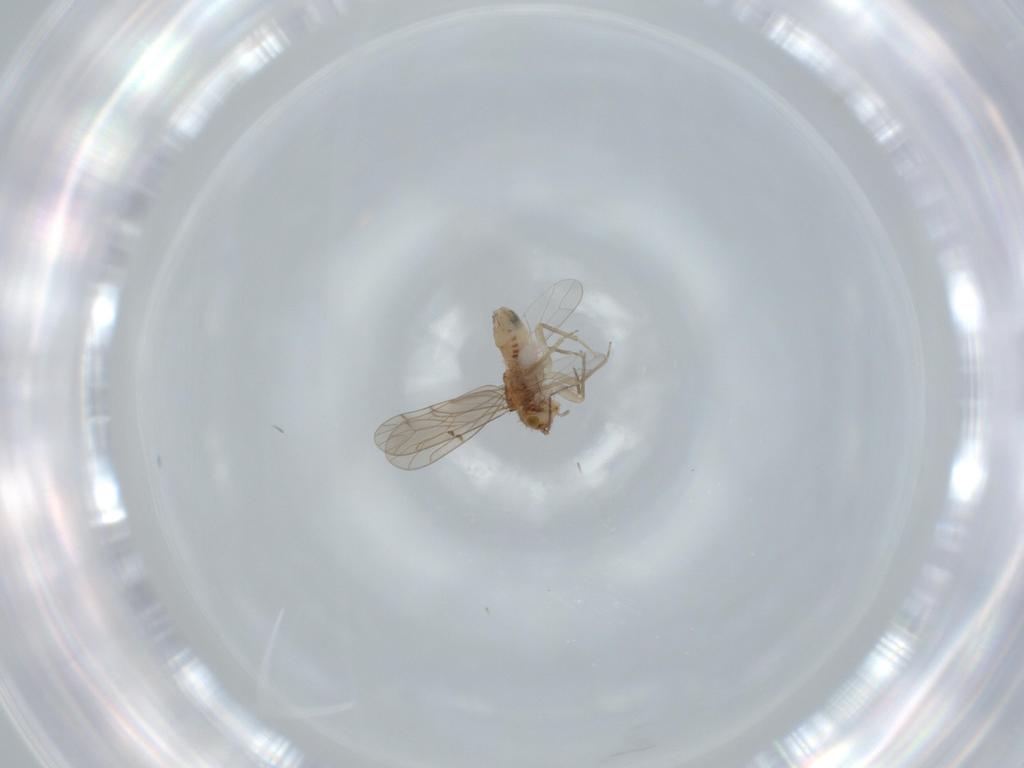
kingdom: Animalia
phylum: Arthropoda
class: Insecta
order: Psocodea
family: Ectopsocidae
